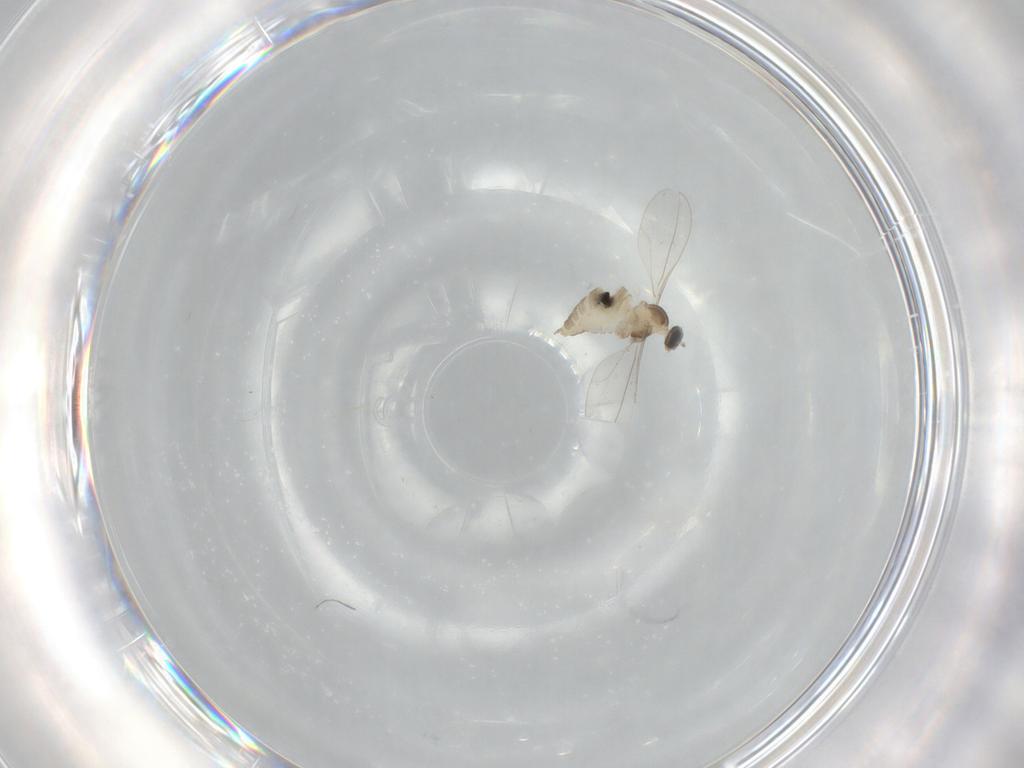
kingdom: Animalia
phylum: Arthropoda
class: Insecta
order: Diptera
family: Cecidomyiidae
